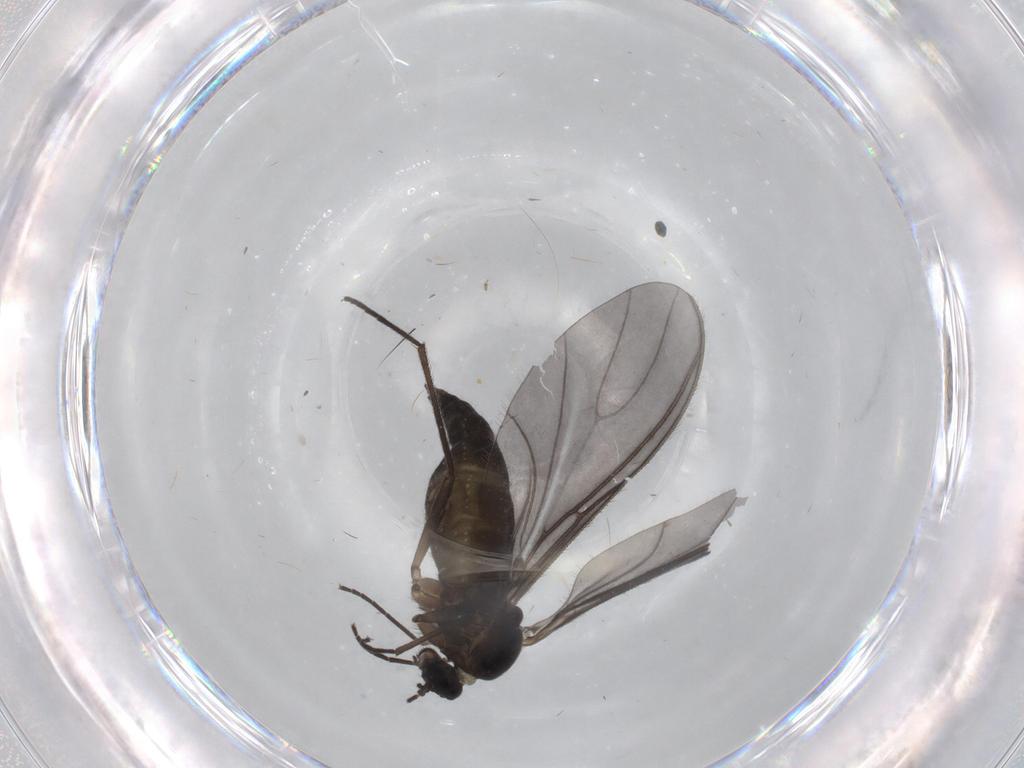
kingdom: Animalia
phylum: Arthropoda
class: Insecta
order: Diptera
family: Sciaridae
